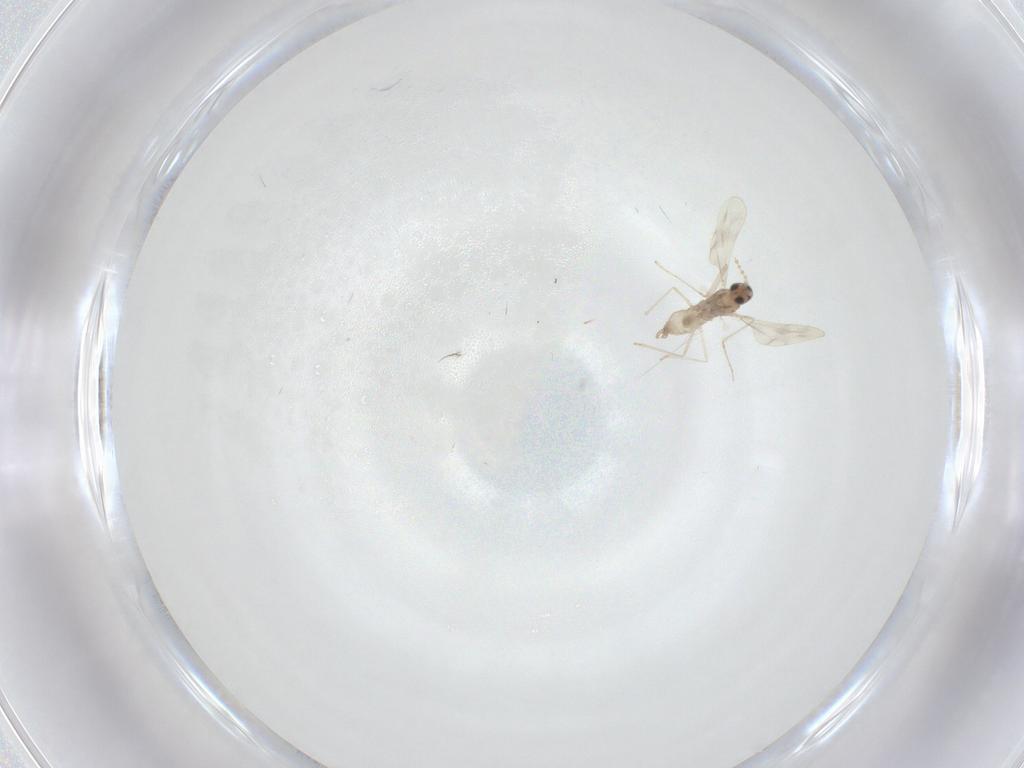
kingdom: Animalia
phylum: Arthropoda
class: Insecta
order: Diptera
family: Cecidomyiidae
